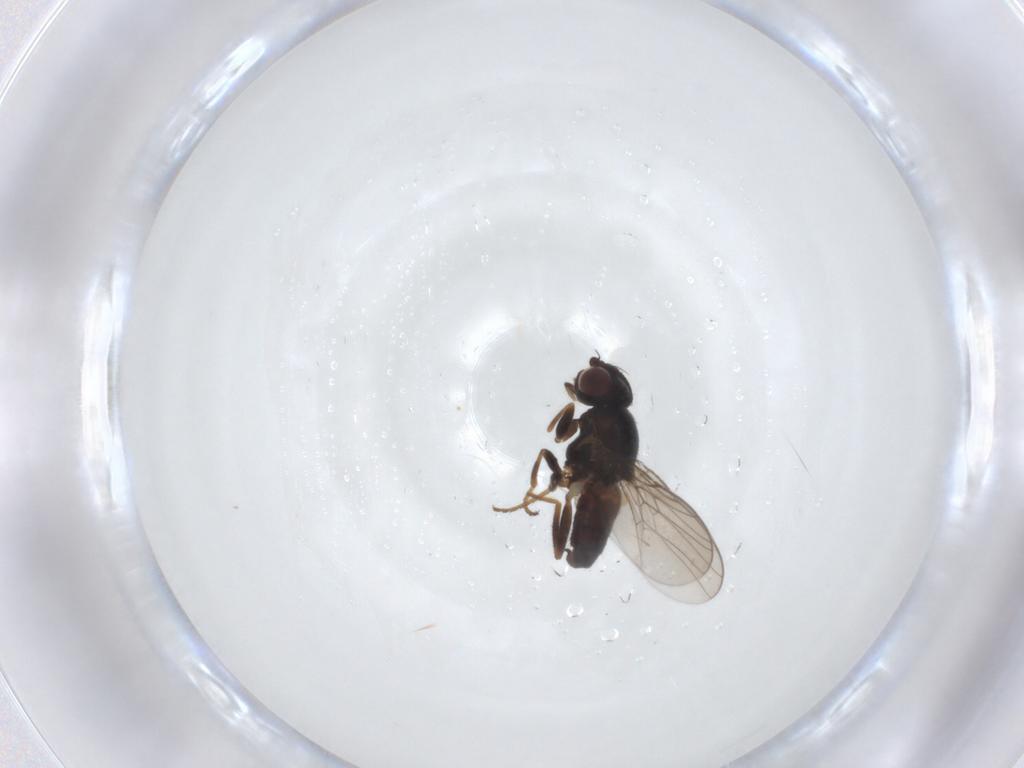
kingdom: Animalia
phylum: Arthropoda
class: Insecta
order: Diptera
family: Chloropidae
